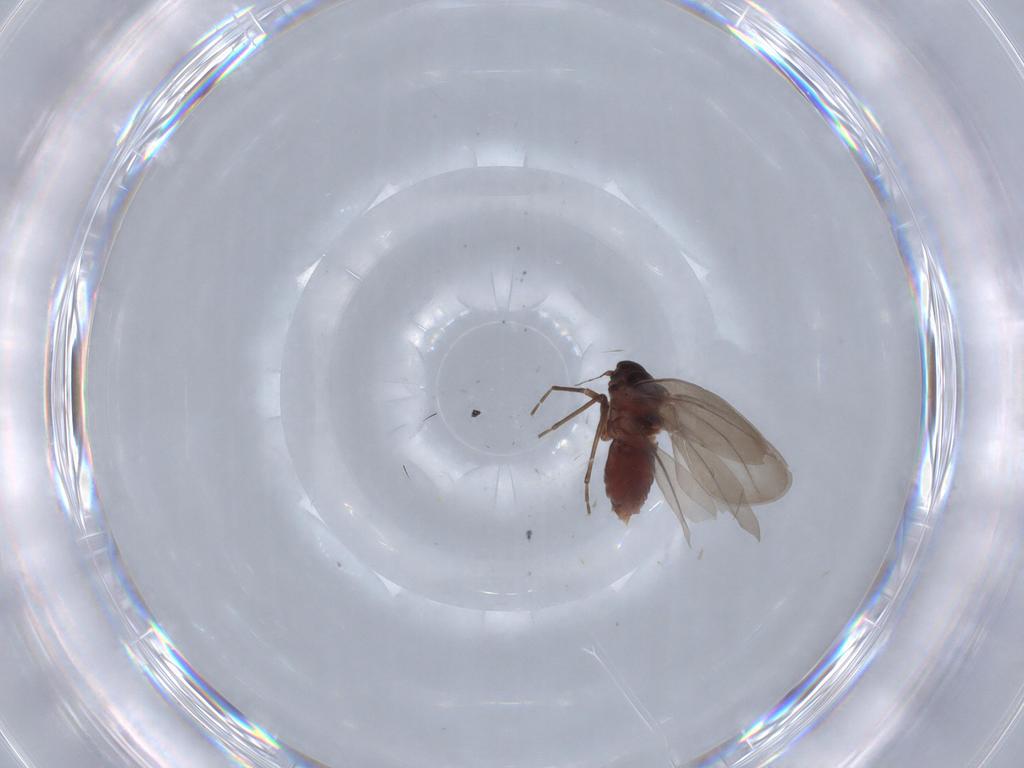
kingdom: Animalia
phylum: Arthropoda
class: Insecta
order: Hemiptera
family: Aleyrodidae
